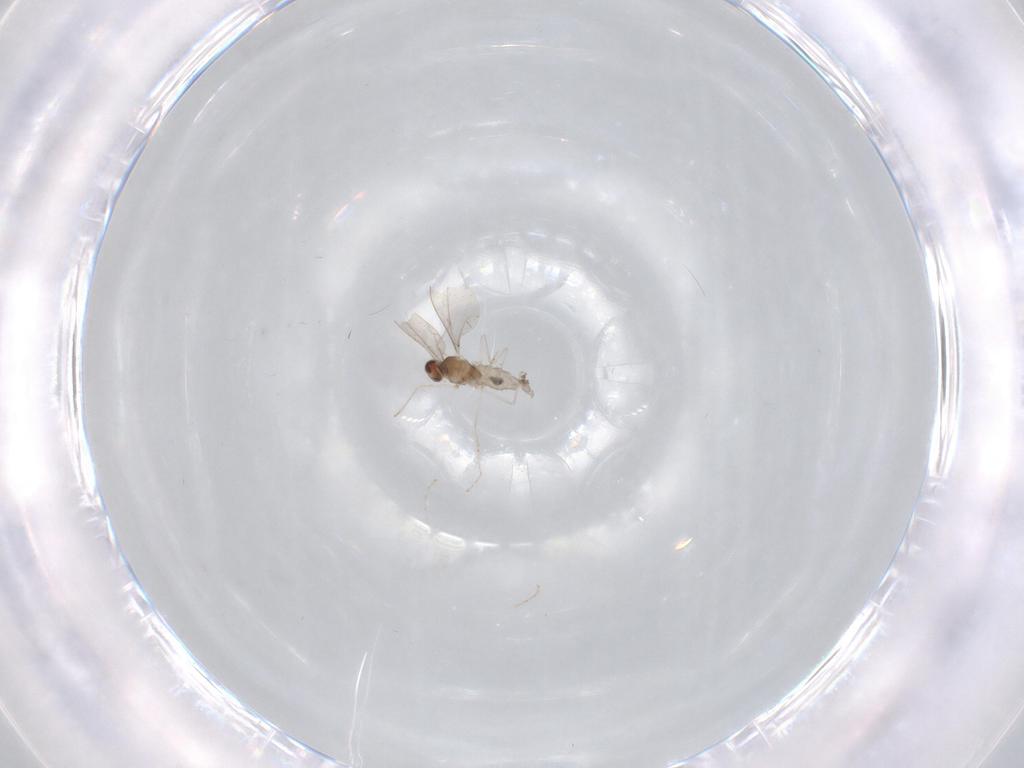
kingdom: Animalia
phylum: Arthropoda
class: Insecta
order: Diptera
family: Cecidomyiidae
